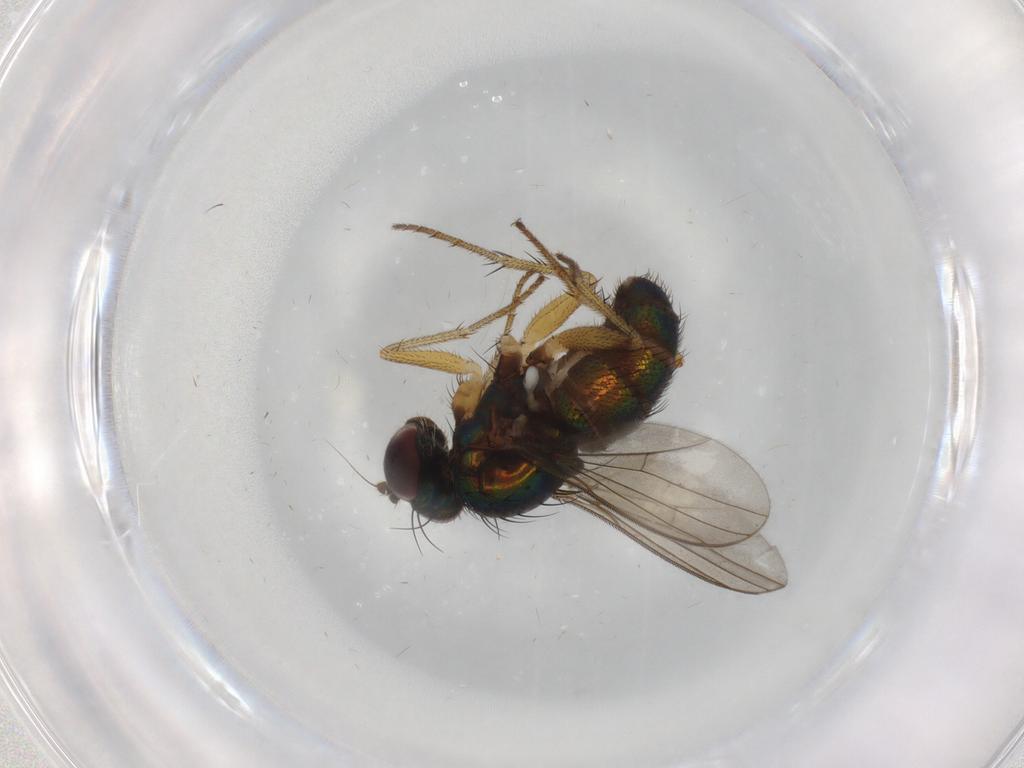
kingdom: Animalia
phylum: Arthropoda
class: Insecta
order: Diptera
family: Dolichopodidae
